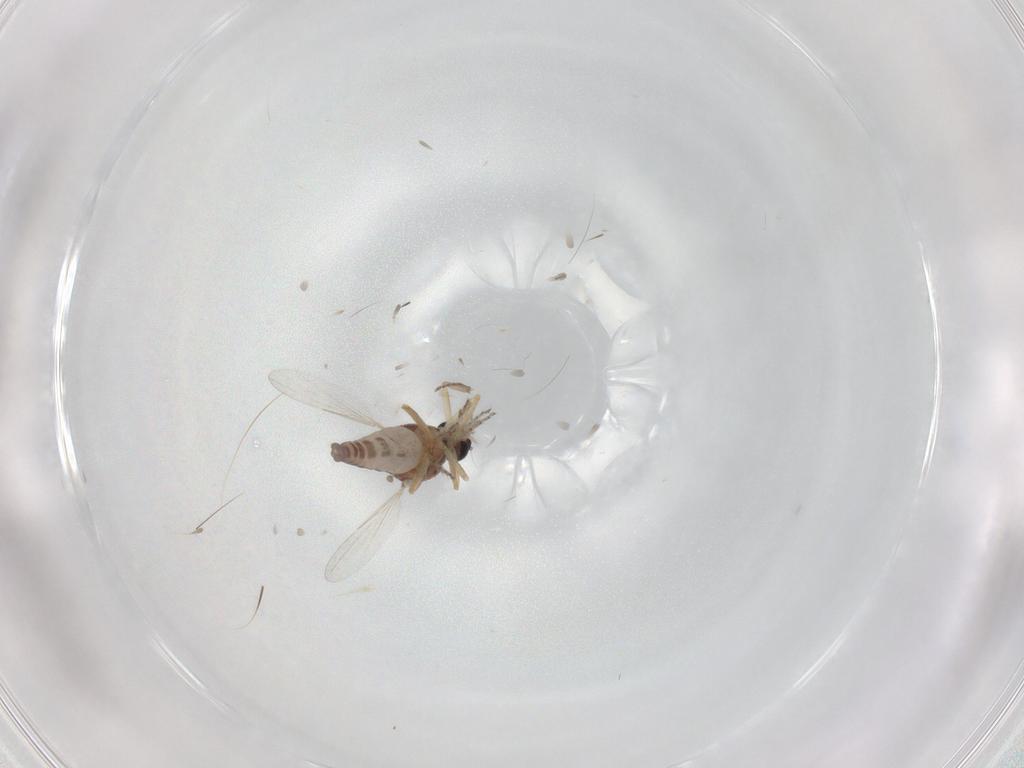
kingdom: Animalia
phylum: Arthropoda
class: Insecta
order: Diptera
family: Ceratopogonidae
